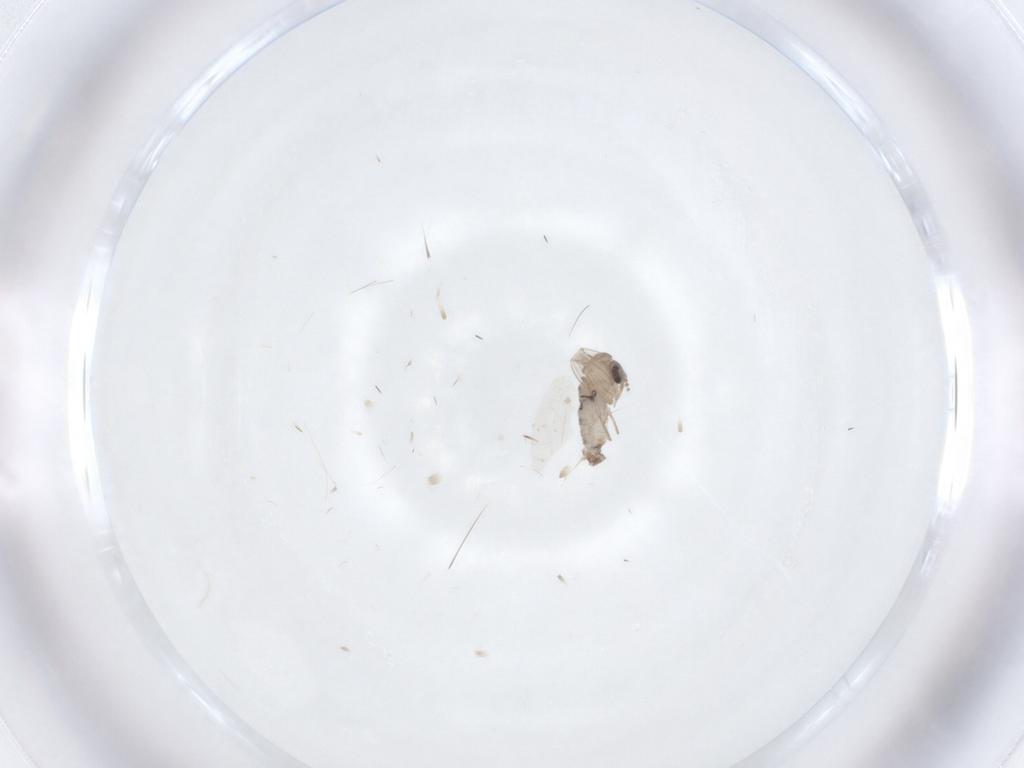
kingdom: Animalia
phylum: Arthropoda
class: Insecta
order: Diptera
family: Psychodidae
